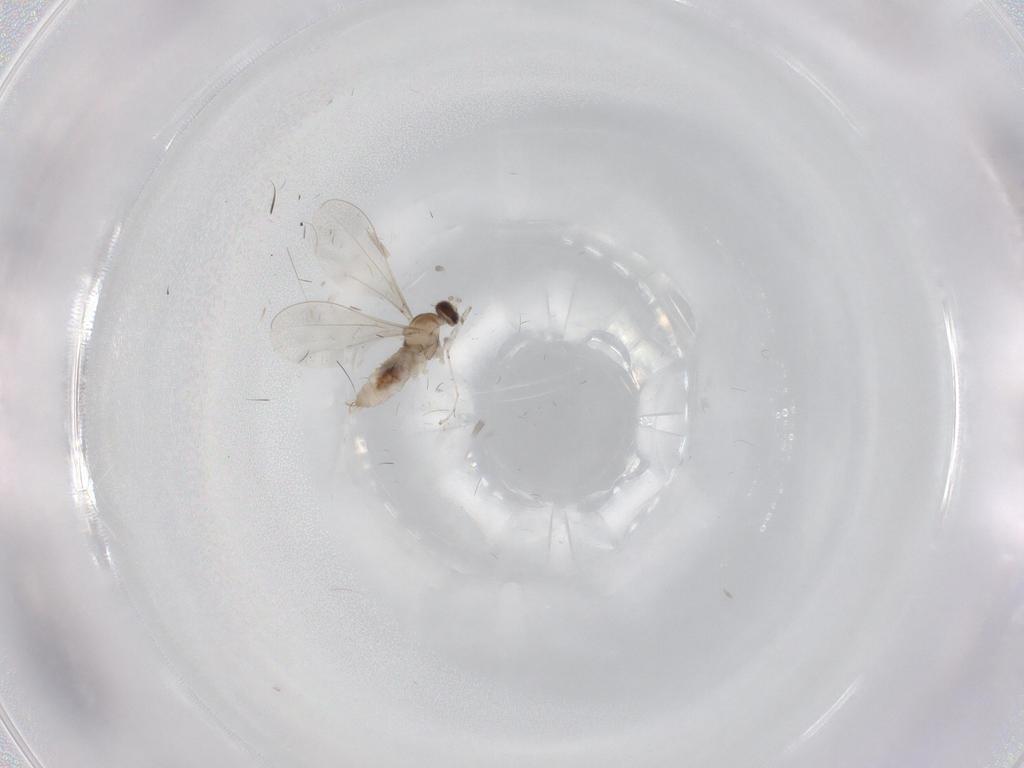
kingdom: Animalia
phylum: Arthropoda
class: Insecta
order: Diptera
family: Cecidomyiidae
